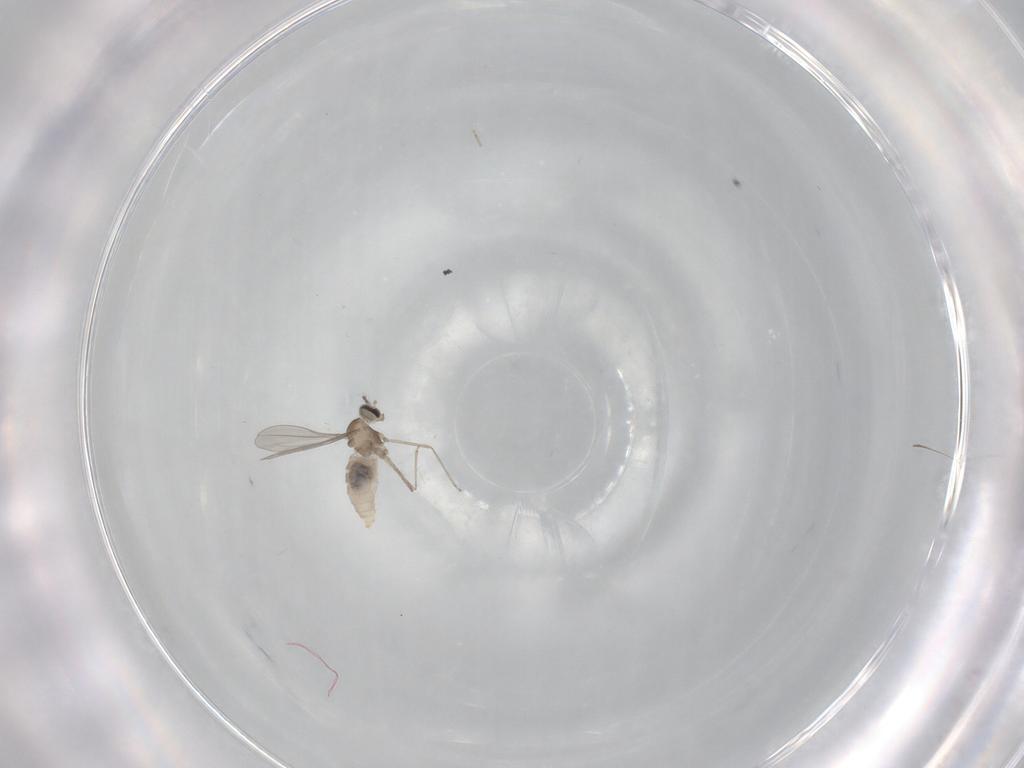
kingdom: Animalia
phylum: Arthropoda
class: Insecta
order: Diptera
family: Cecidomyiidae
